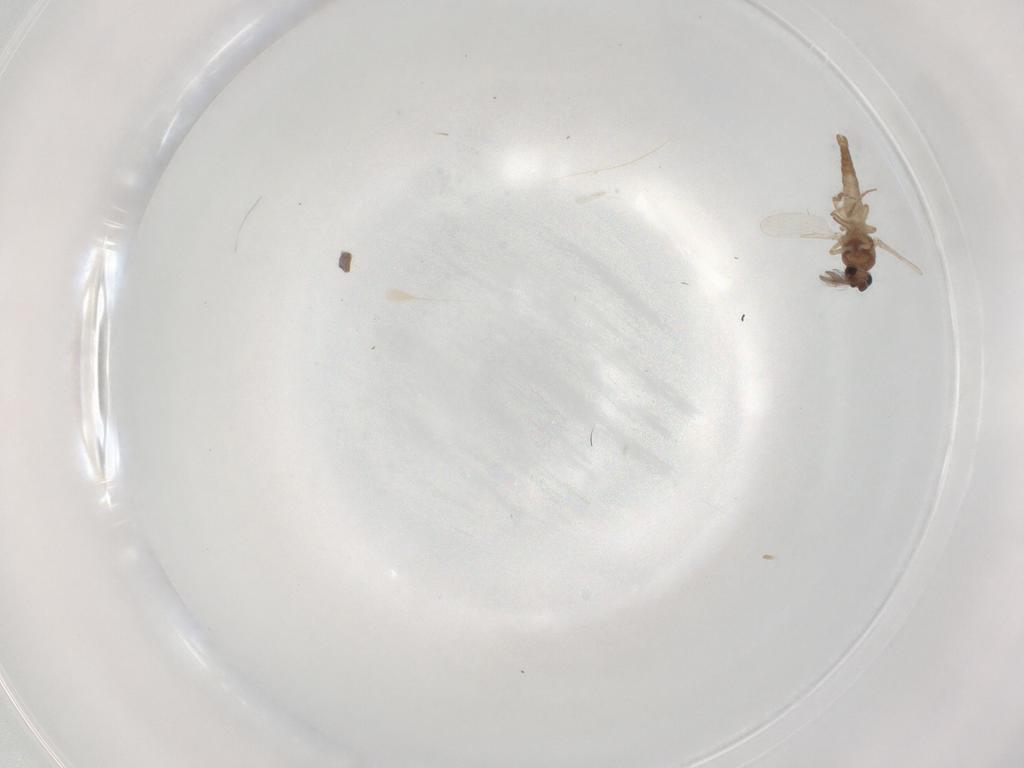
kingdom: Animalia
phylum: Arthropoda
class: Insecta
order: Diptera
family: Ceratopogonidae
